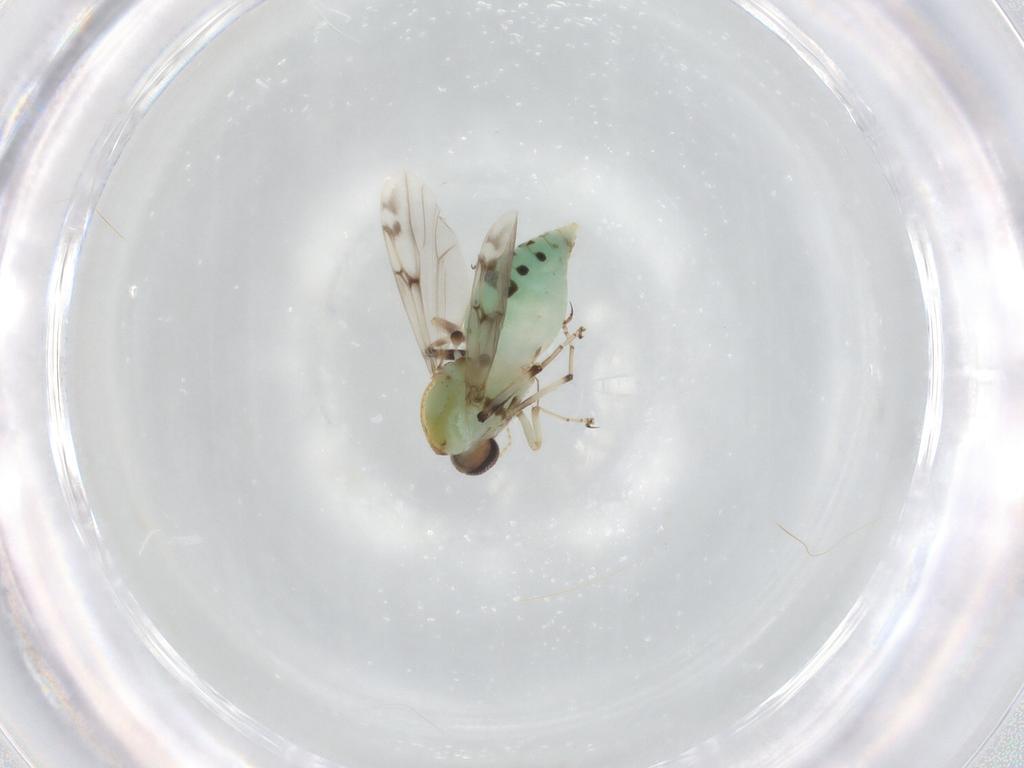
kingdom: Animalia
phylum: Arthropoda
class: Insecta
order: Diptera
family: Ceratopogonidae
